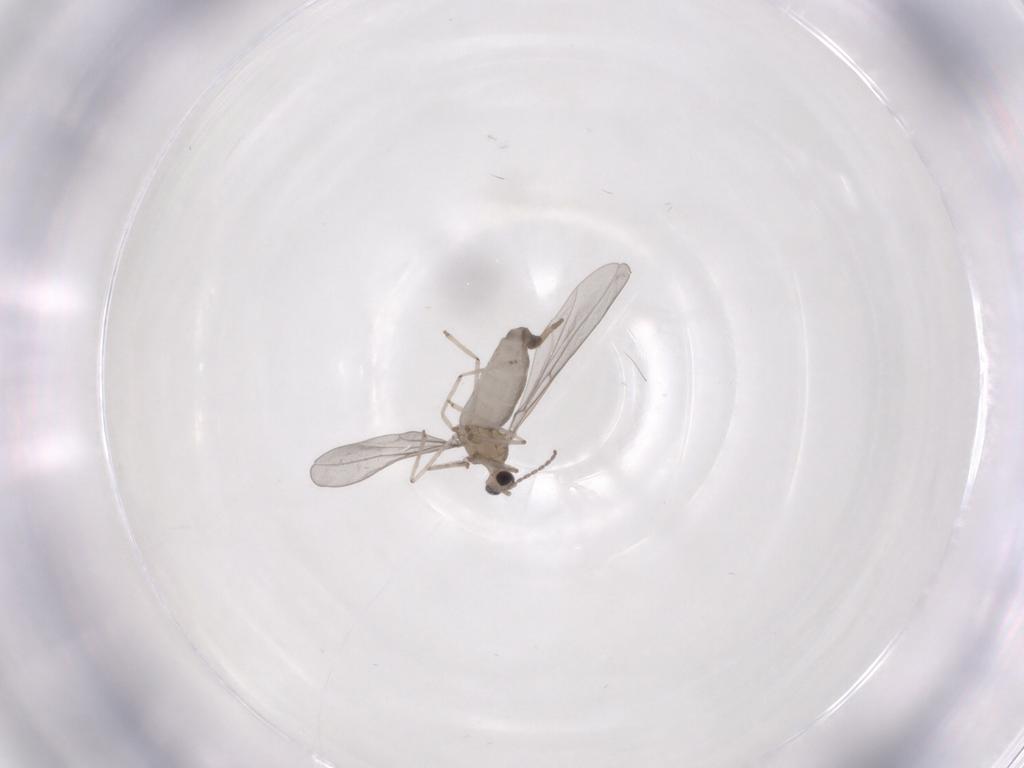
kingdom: Animalia
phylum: Arthropoda
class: Insecta
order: Diptera
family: Cecidomyiidae
